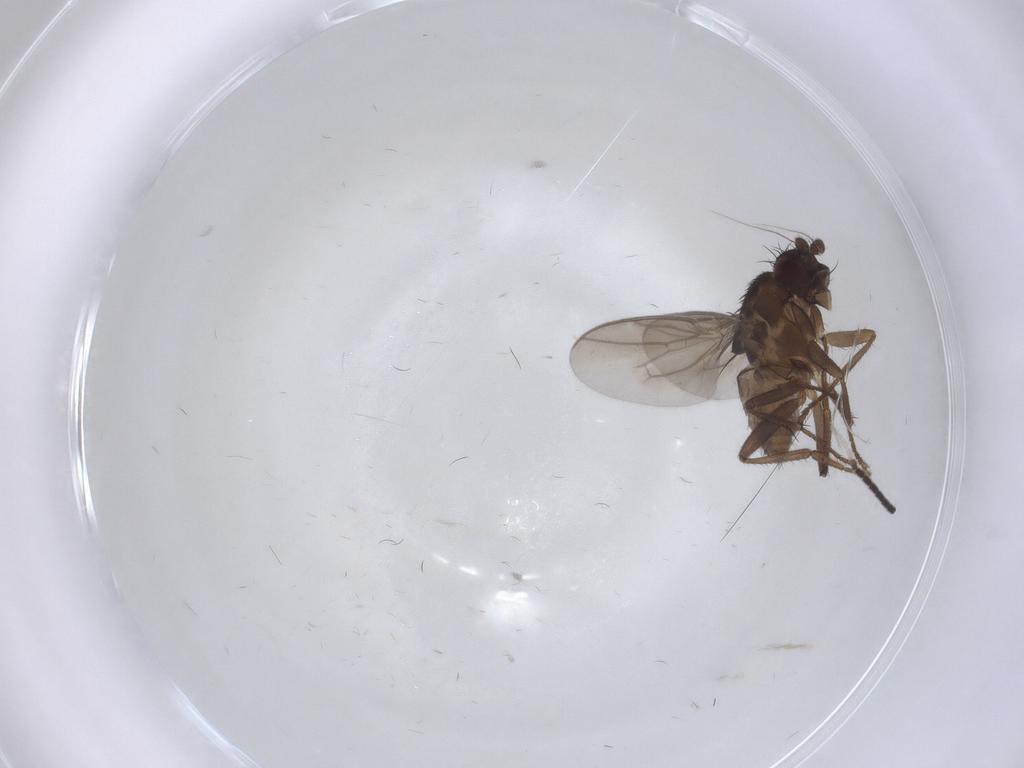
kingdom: Animalia
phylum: Arthropoda
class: Insecta
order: Diptera
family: Sphaeroceridae
